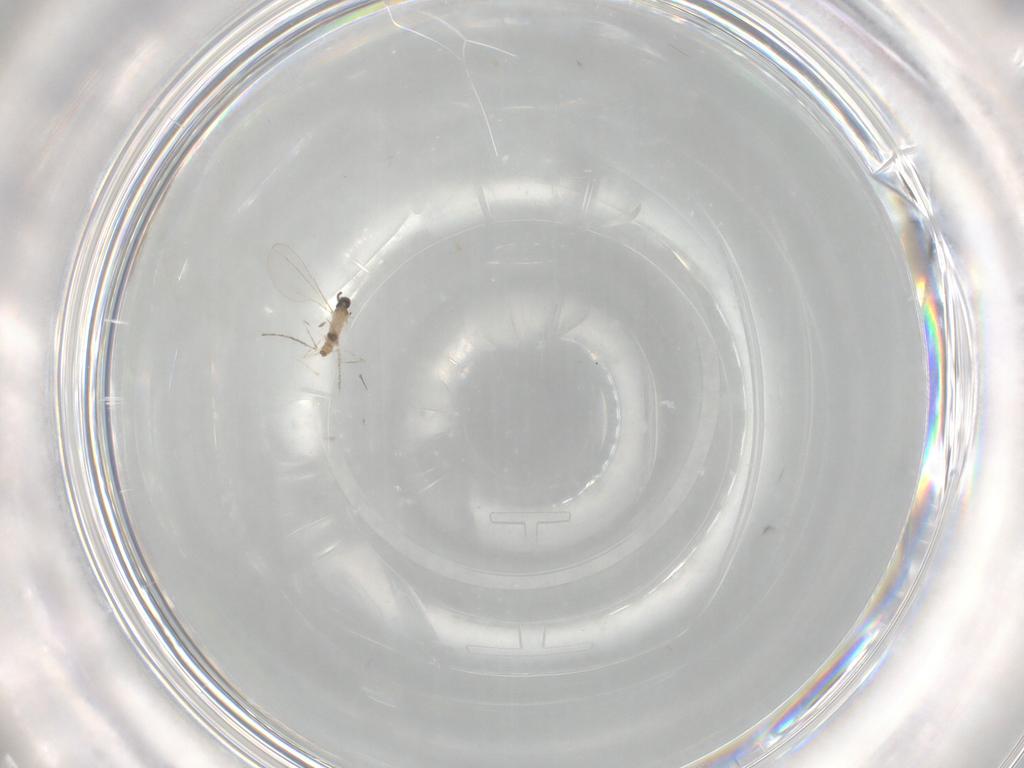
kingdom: Animalia
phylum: Arthropoda
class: Insecta
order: Diptera
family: Cecidomyiidae
